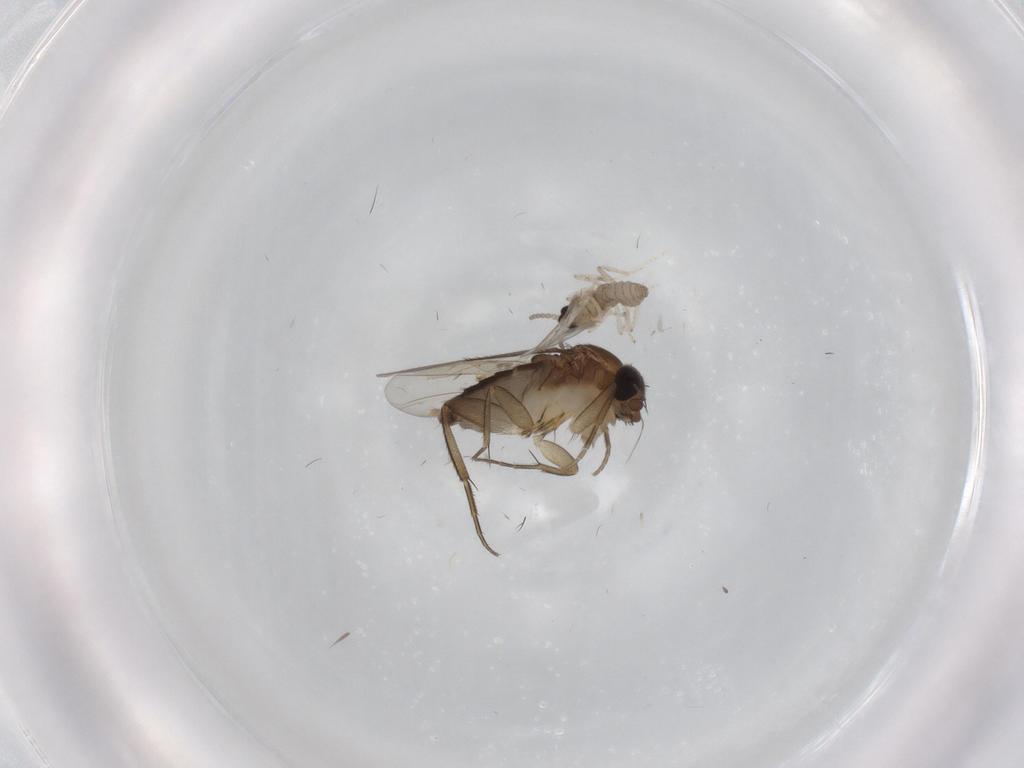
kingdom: Animalia
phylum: Arthropoda
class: Insecta
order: Diptera
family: Phoridae
